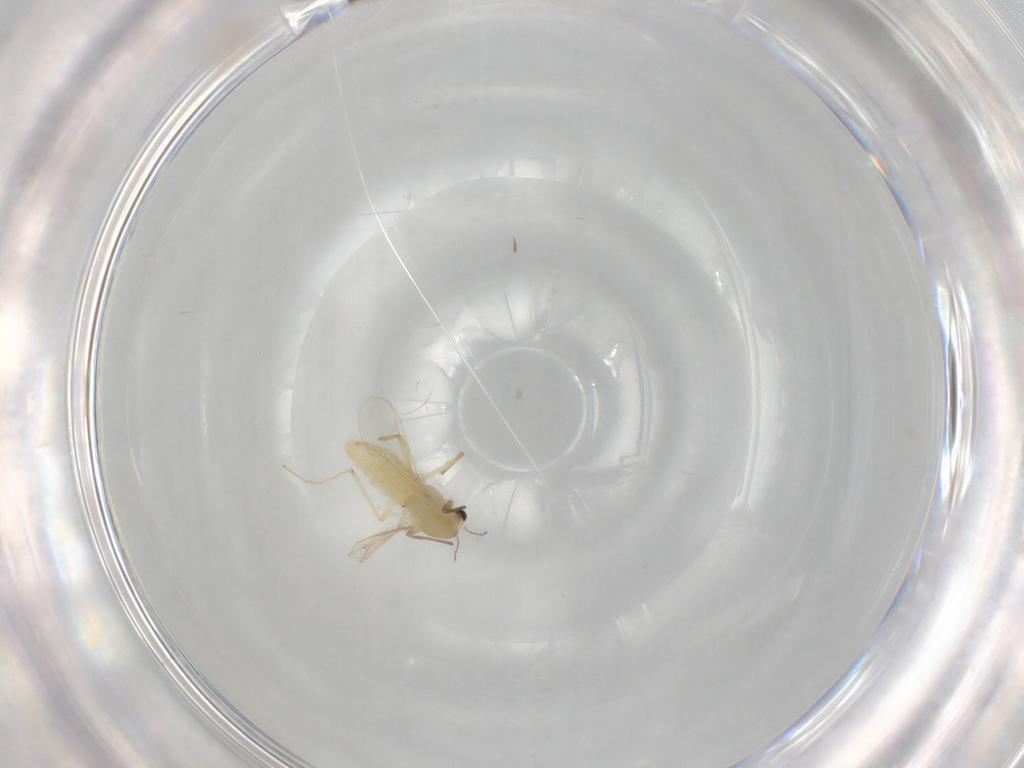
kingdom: Animalia
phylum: Arthropoda
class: Insecta
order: Diptera
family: Chironomidae
